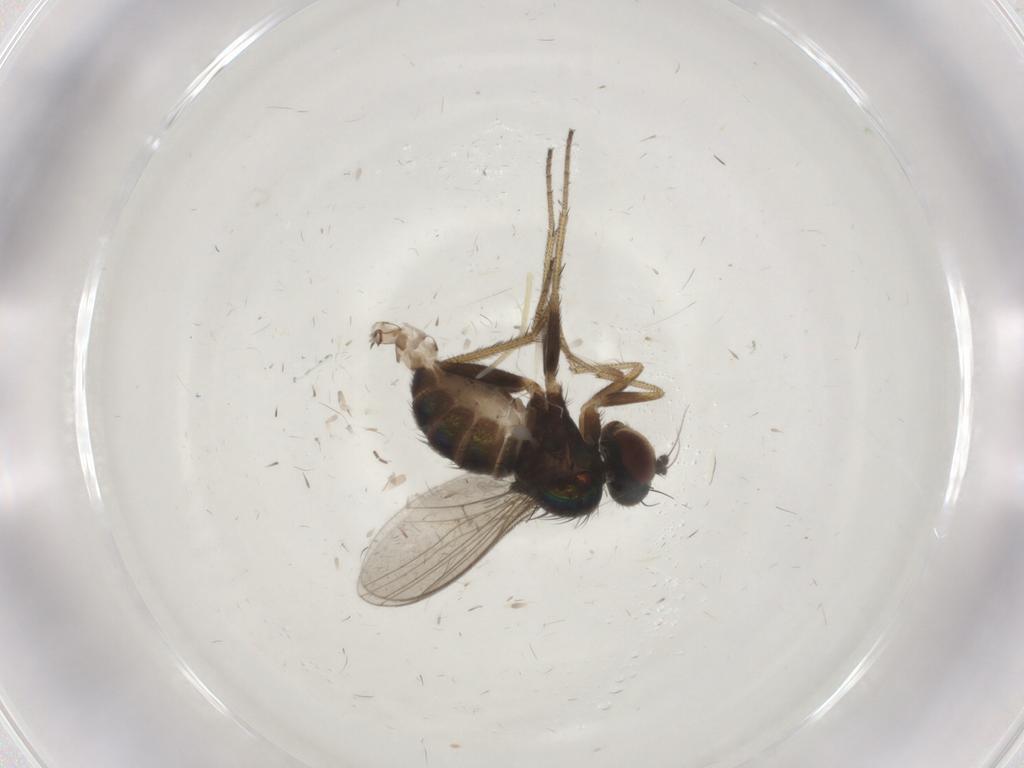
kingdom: Animalia
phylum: Arthropoda
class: Insecta
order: Diptera
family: Dolichopodidae
